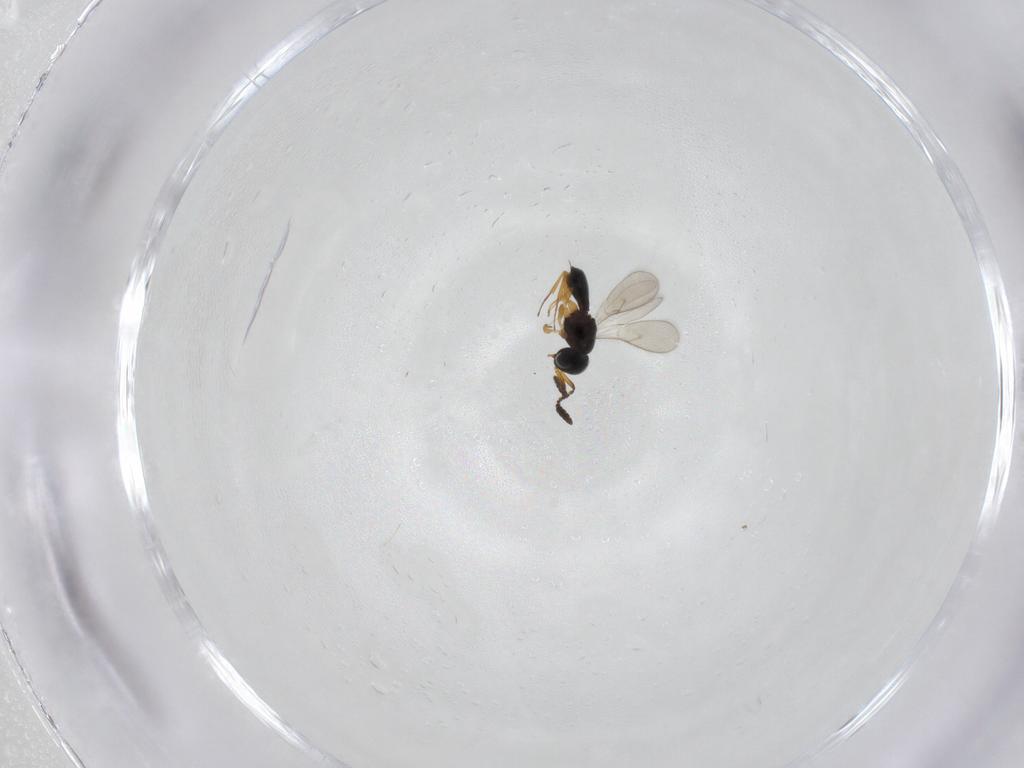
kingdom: Animalia
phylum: Arthropoda
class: Insecta
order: Hymenoptera
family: Scelionidae
